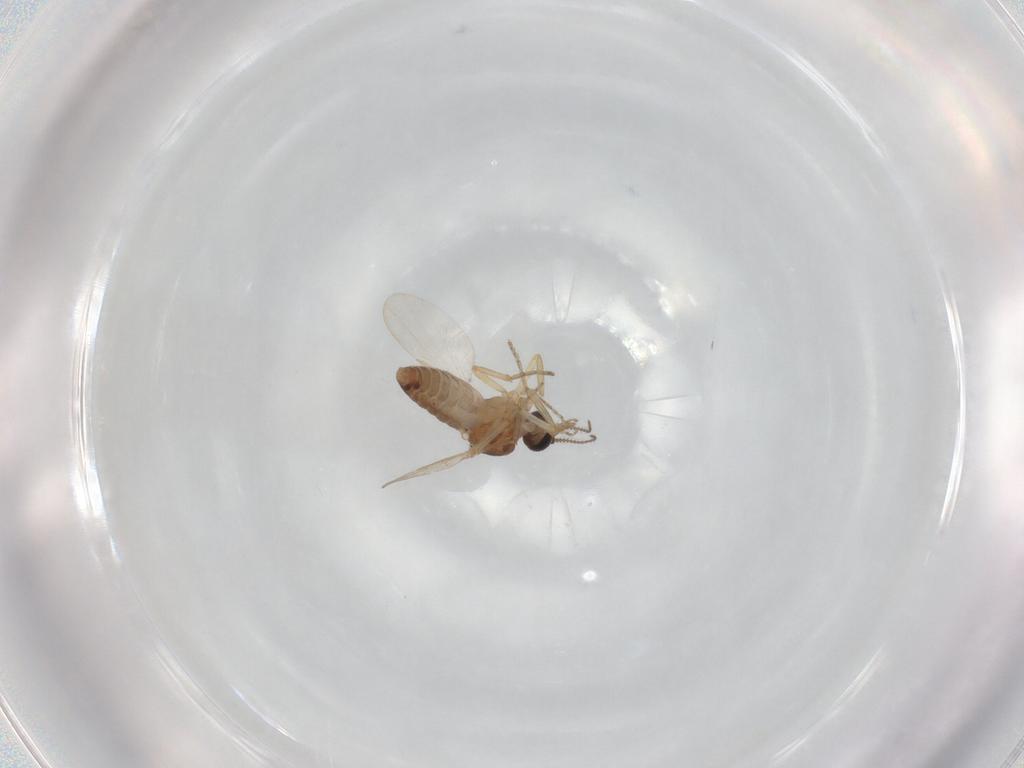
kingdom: Animalia
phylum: Arthropoda
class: Insecta
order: Diptera
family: Ceratopogonidae
